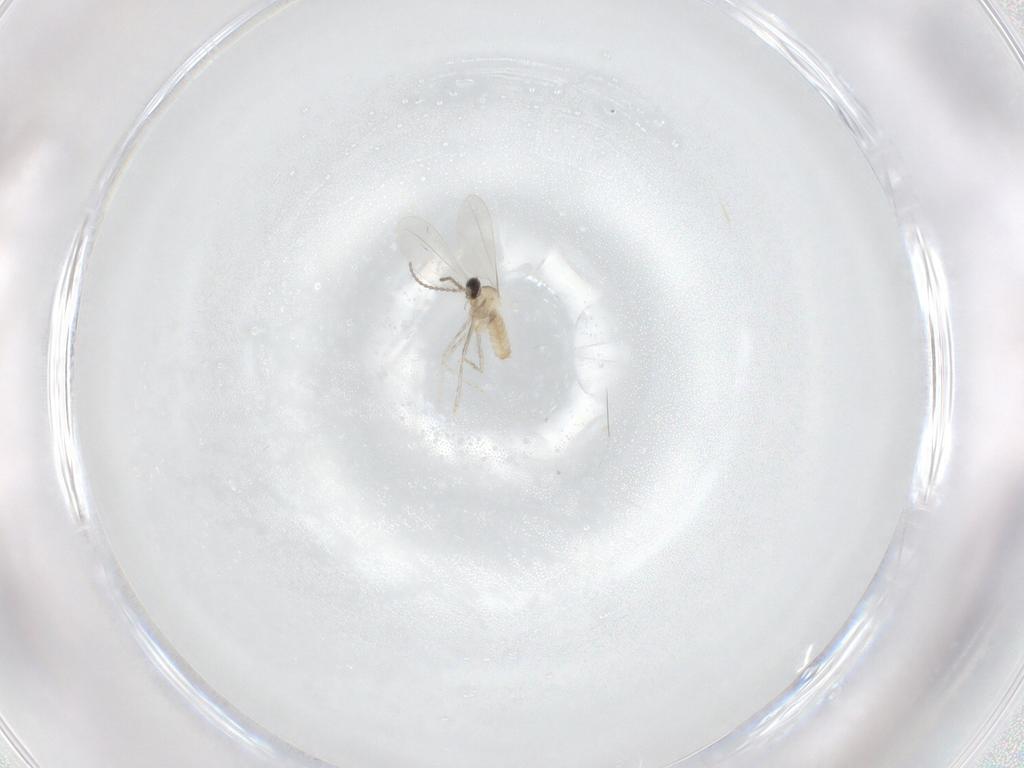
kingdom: Animalia
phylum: Arthropoda
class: Insecta
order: Diptera
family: Cecidomyiidae
